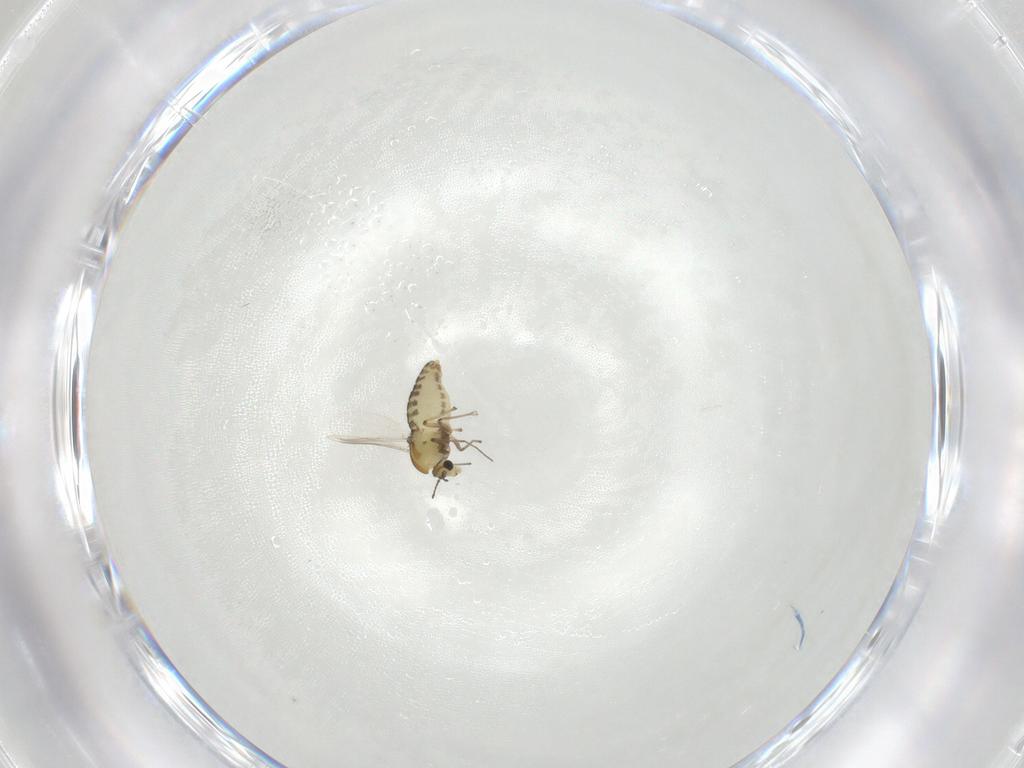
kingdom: Animalia
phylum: Arthropoda
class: Insecta
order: Diptera
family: Chironomidae
